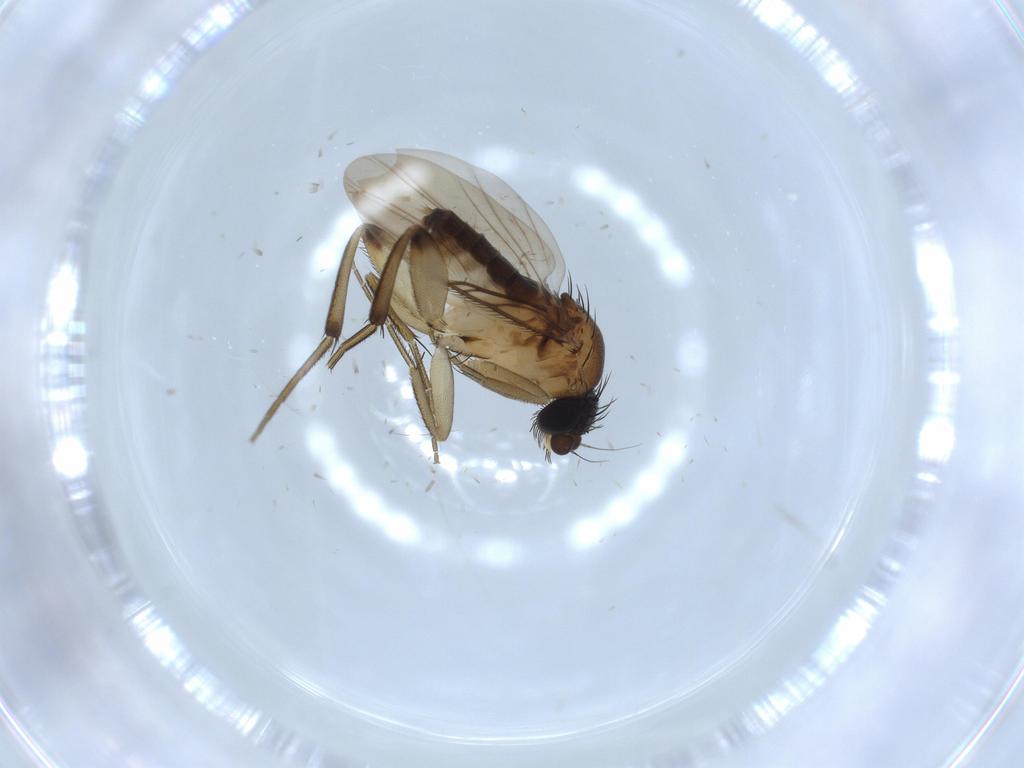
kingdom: Animalia
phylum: Arthropoda
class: Insecta
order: Diptera
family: Phoridae
